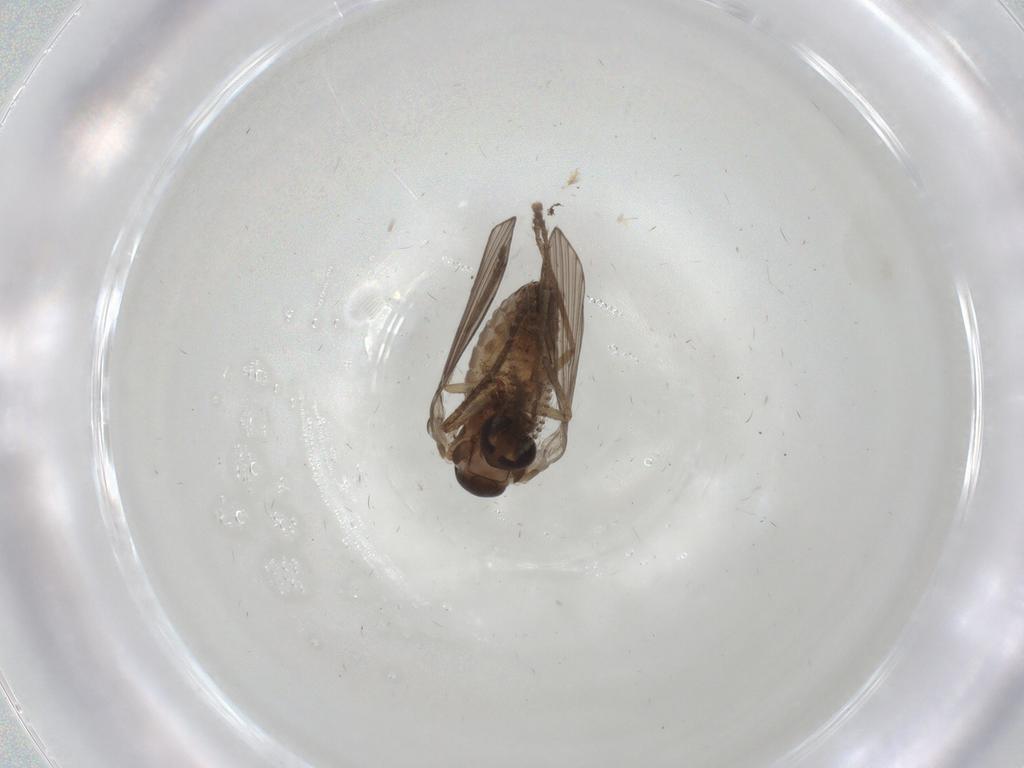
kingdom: Animalia
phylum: Arthropoda
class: Insecta
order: Diptera
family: Psychodidae
